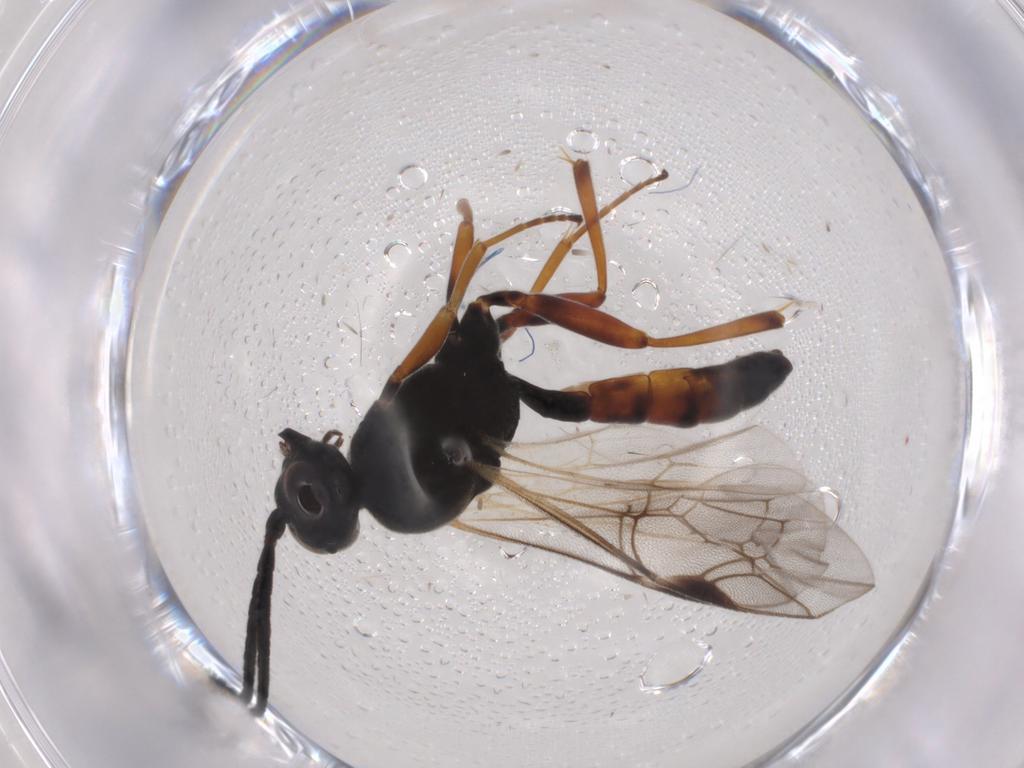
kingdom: Animalia
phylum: Arthropoda
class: Insecta
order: Hymenoptera
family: Ichneumonidae
